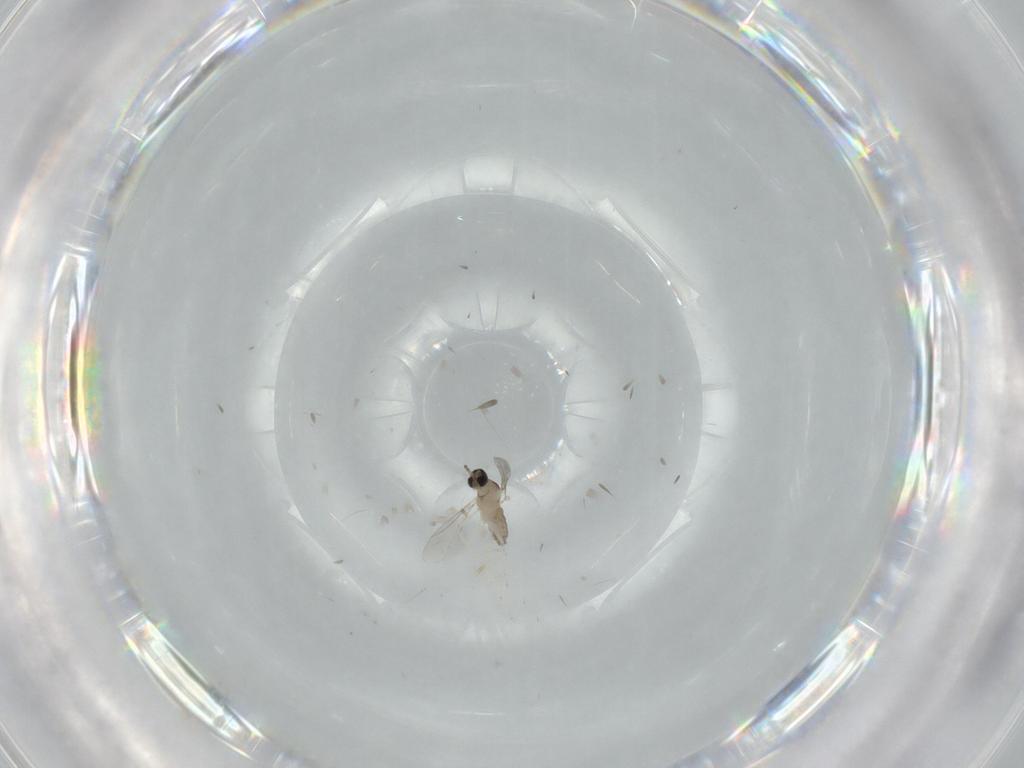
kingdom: Animalia
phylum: Arthropoda
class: Insecta
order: Diptera
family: Cecidomyiidae
